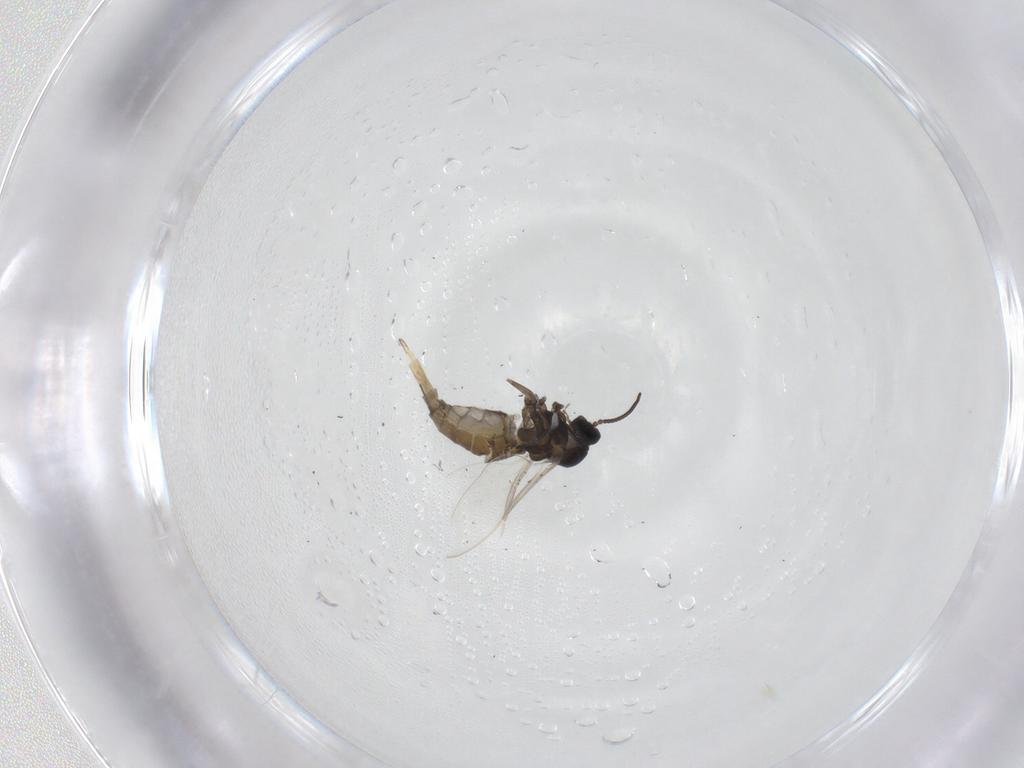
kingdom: Animalia
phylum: Arthropoda
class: Insecta
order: Diptera
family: Cecidomyiidae
